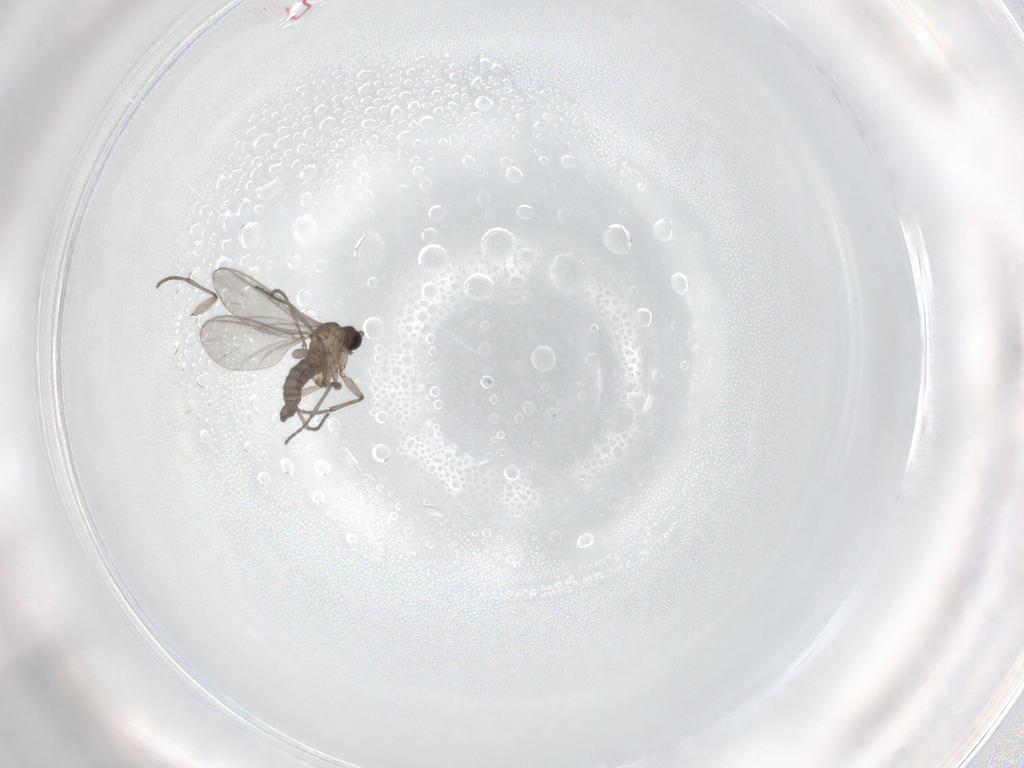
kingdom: Animalia
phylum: Arthropoda
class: Insecta
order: Diptera
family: Sciaridae
